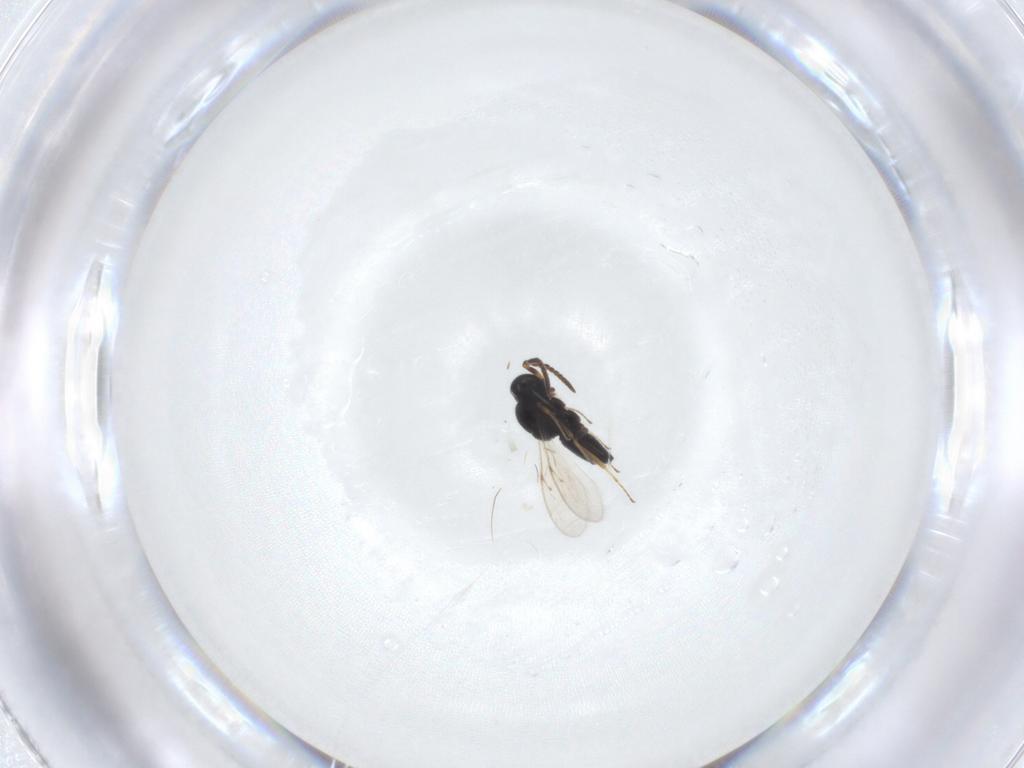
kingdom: Animalia
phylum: Arthropoda
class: Insecta
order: Hymenoptera
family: Scelionidae
